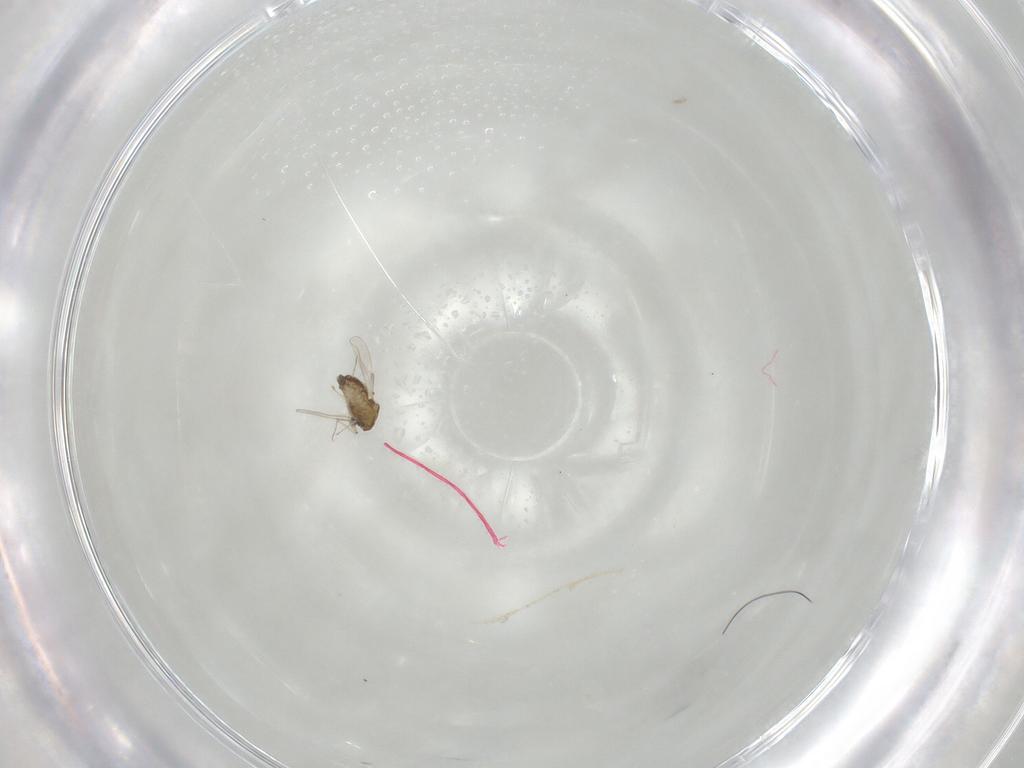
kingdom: Animalia
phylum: Arthropoda
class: Insecta
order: Diptera
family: Chironomidae
